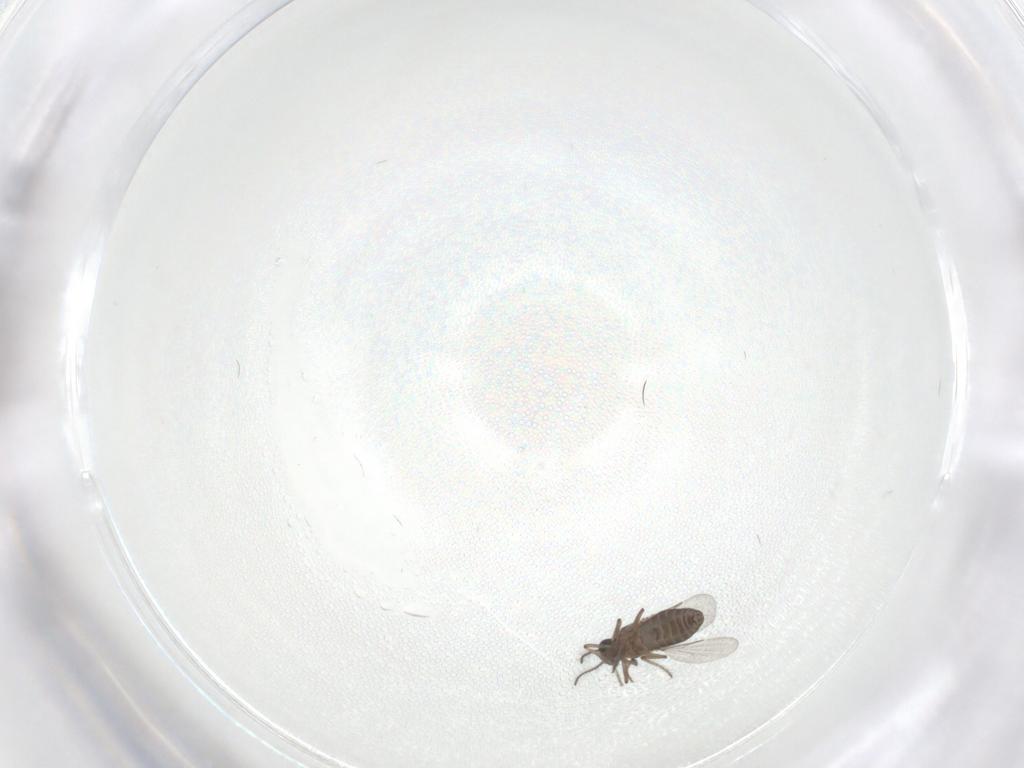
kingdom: Animalia
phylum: Arthropoda
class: Insecta
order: Diptera
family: Ceratopogonidae
